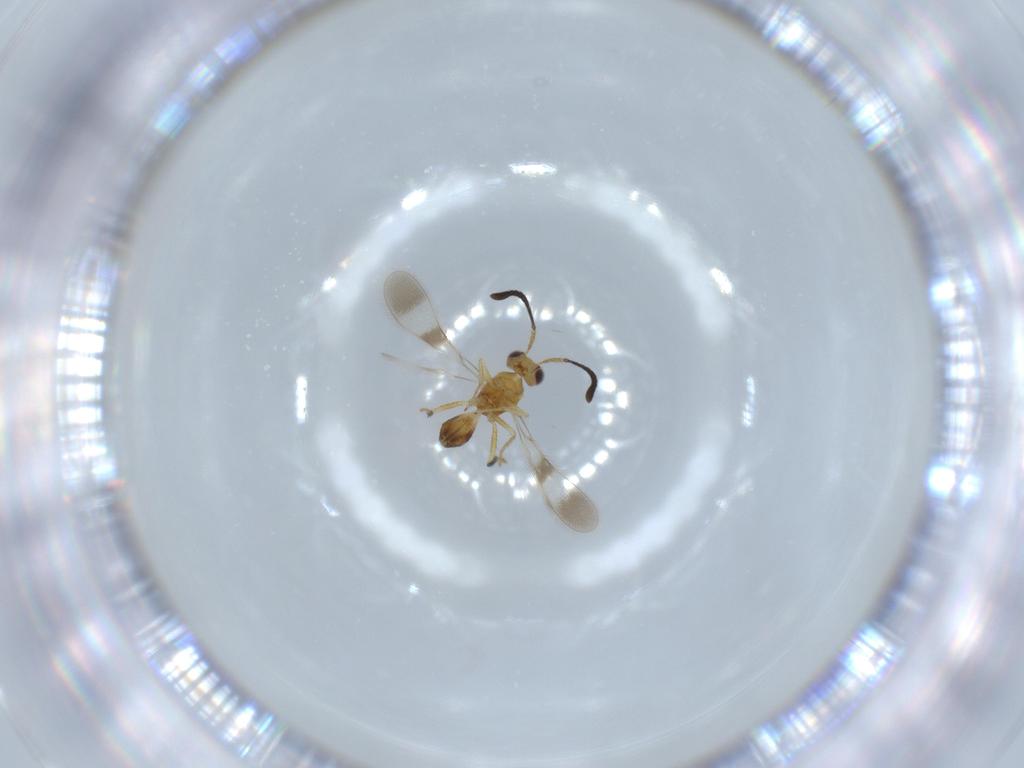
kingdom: Animalia
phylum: Arthropoda
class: Insecta
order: Hymenoptera
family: Mymaridae
